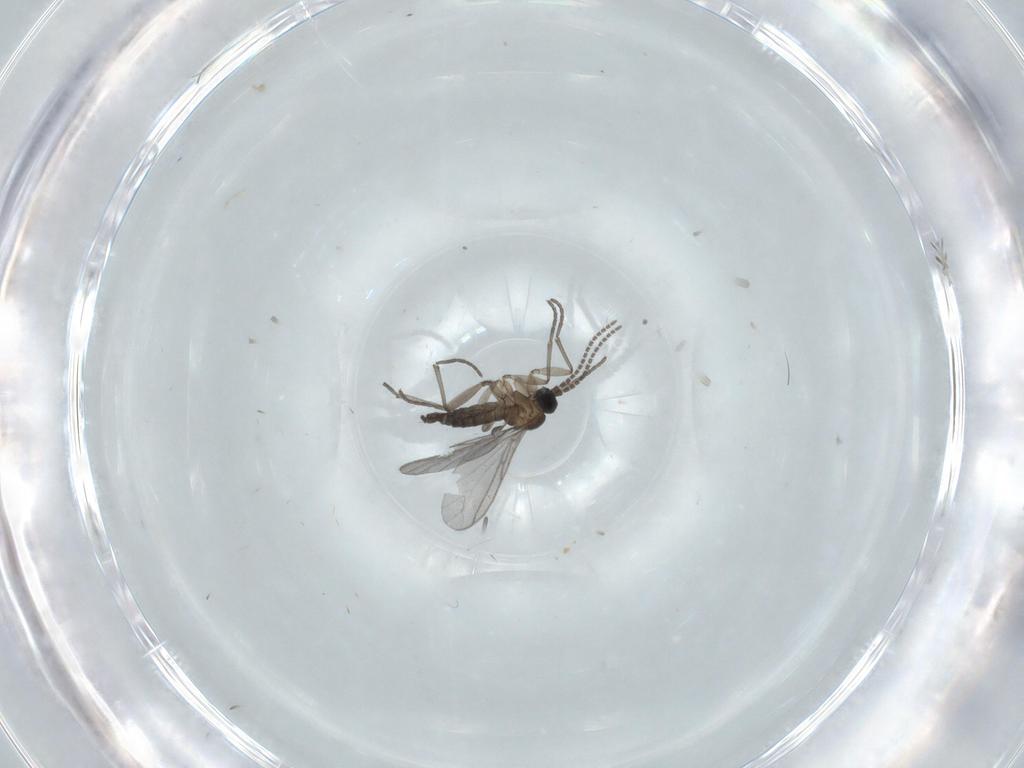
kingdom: Animalia
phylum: Arthropoda
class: Insecta
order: Diptera
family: Chironomidae
